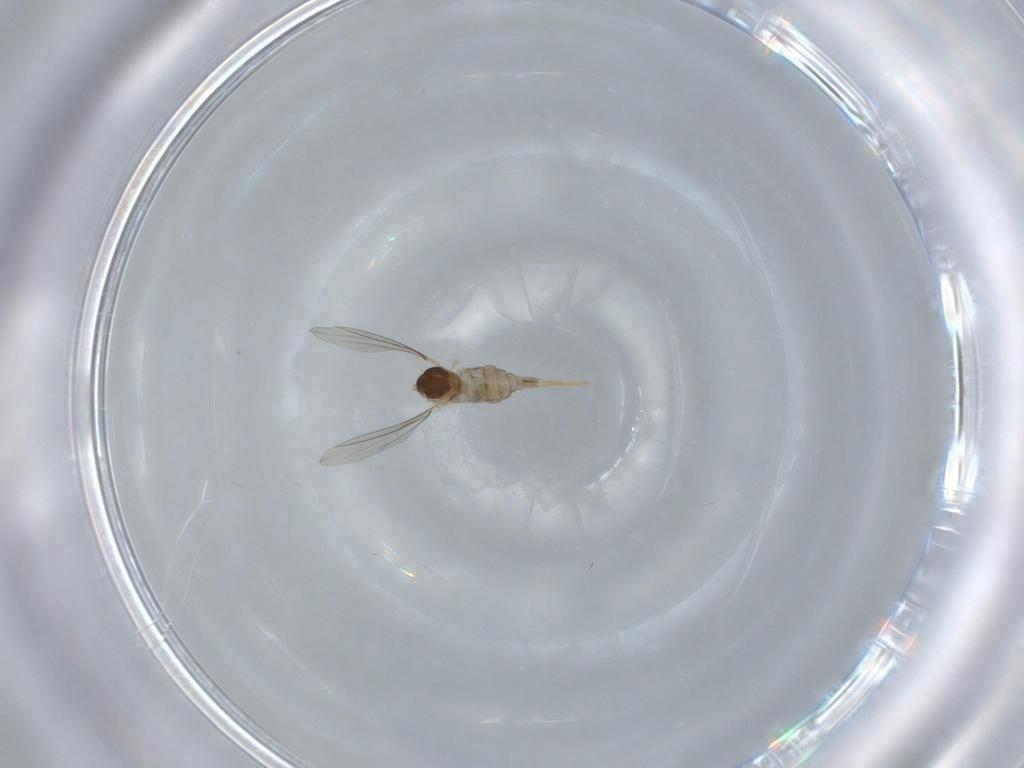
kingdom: Animalia
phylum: Arthropoda
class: Insecta
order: Diptera
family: Cecidomyiidae
